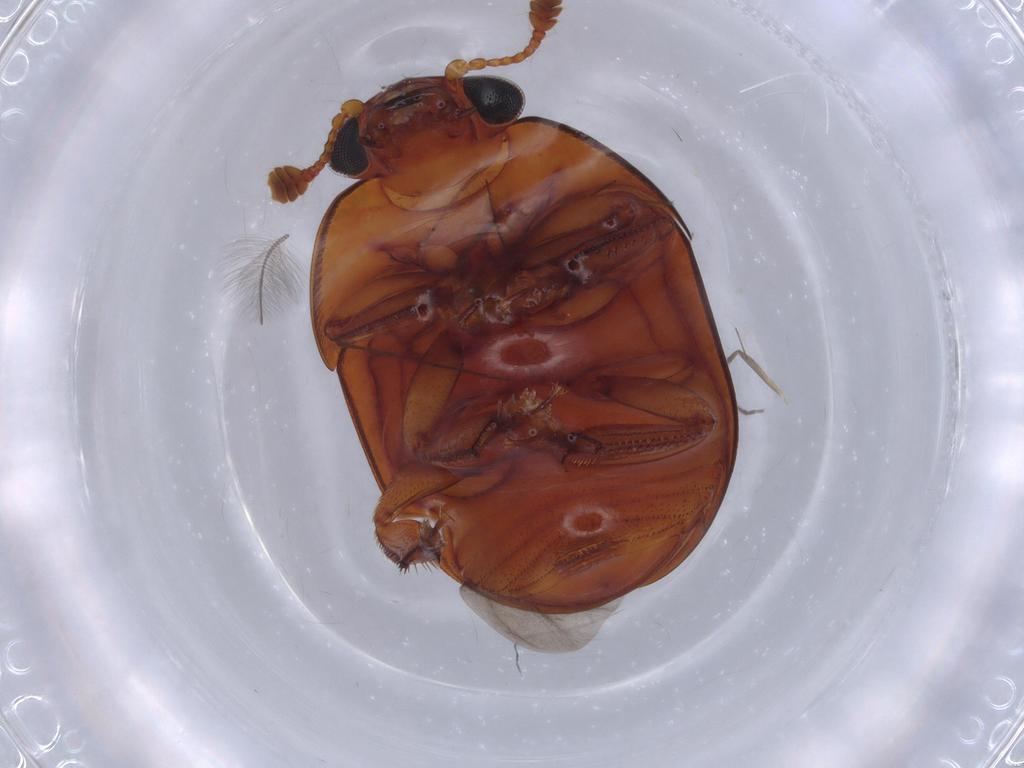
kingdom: Animalia
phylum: Arthropoda
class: Insecta
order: Coleoptera
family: Nitidulidae
